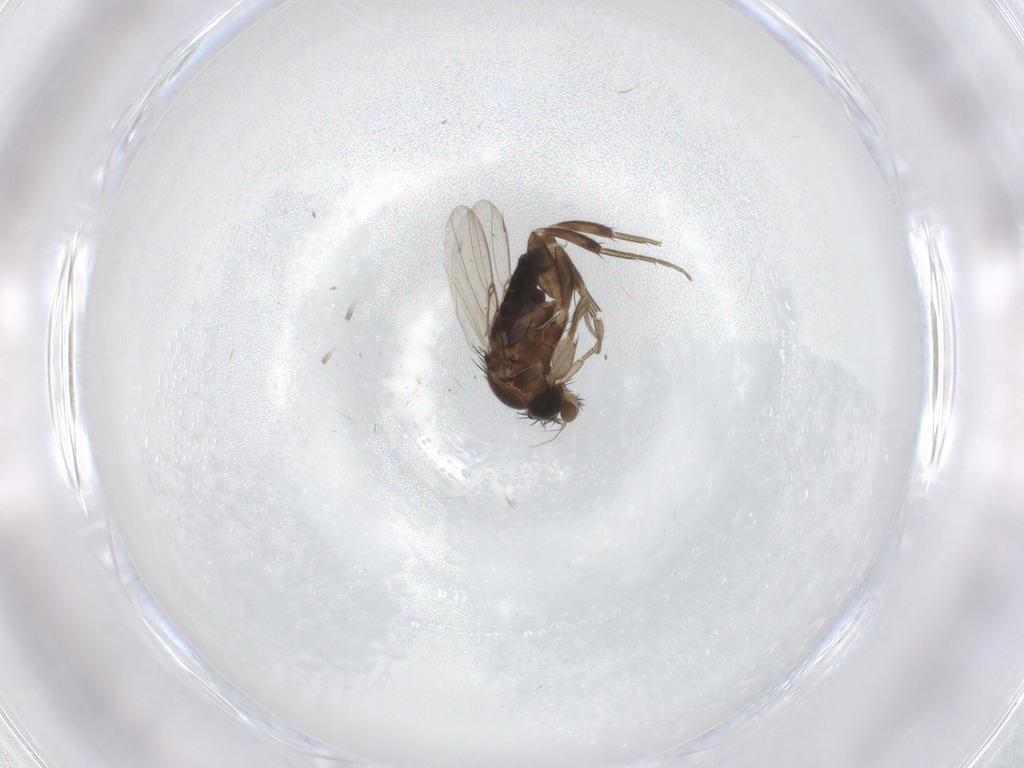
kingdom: Animalia
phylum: Arthropoda
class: Insecta
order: Diptera
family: Phoridae
